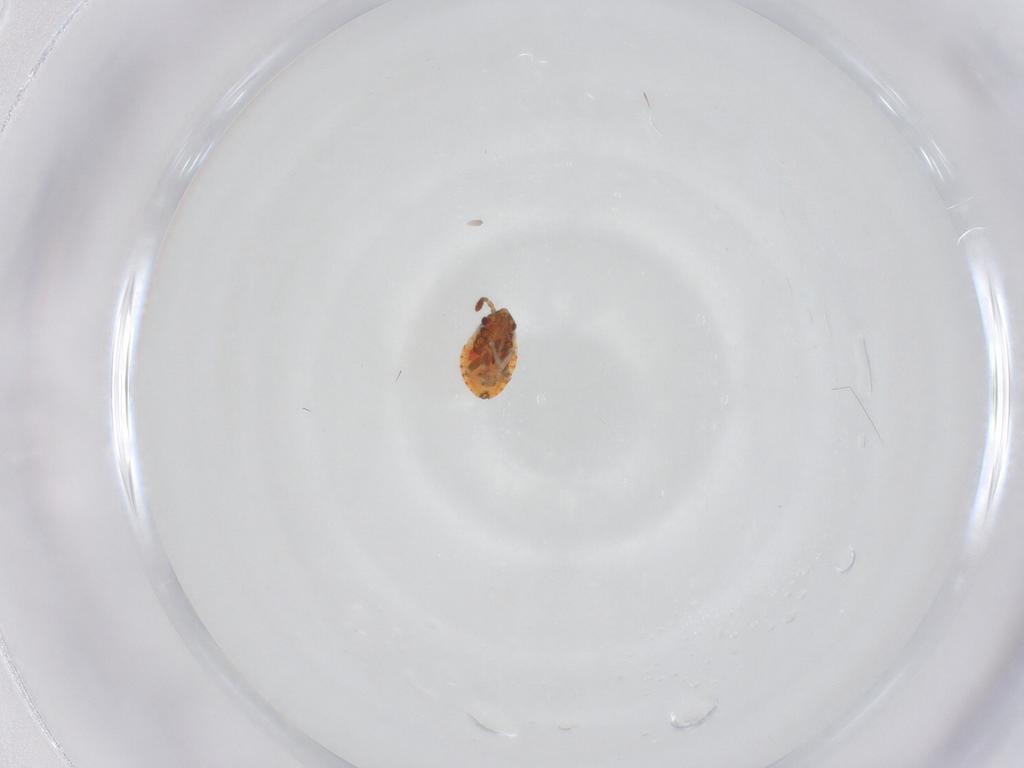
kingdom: Animalia
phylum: Arthropoda
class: Insecta
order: Hemiptera
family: Lygaeidae
